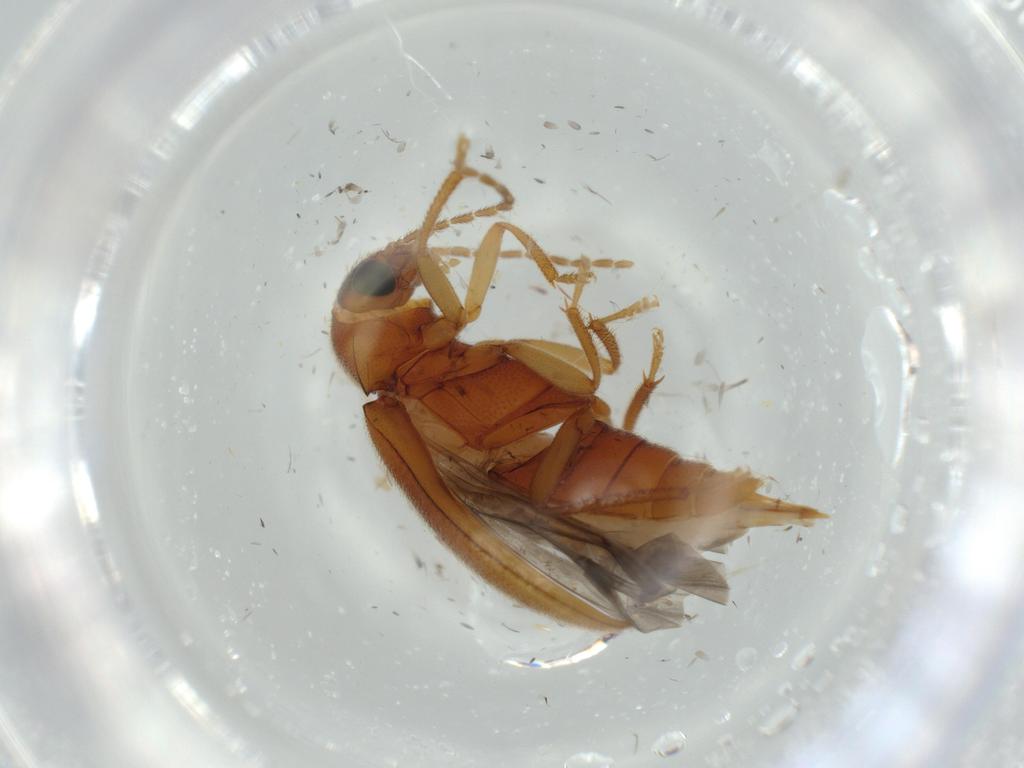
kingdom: Animalia
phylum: Arthropoda
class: Insecta
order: Coleoptera
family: Ptilodactylidae
